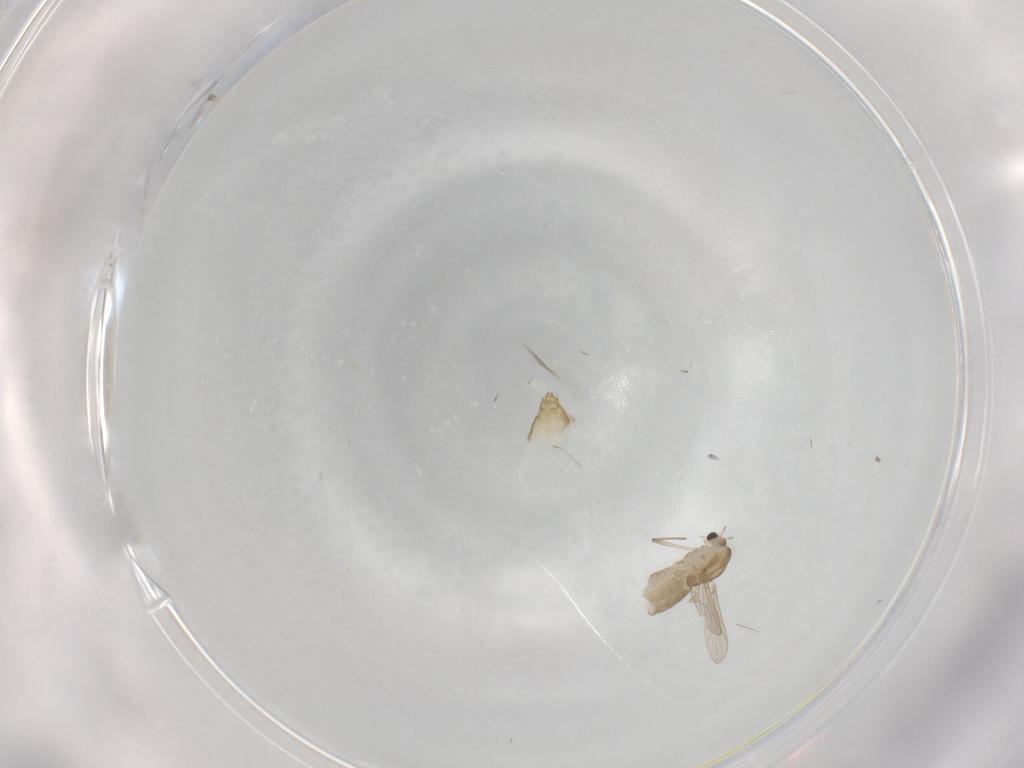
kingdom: Animalia
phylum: Arthropoda
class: Insecta
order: Diptera
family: Chironomidae
